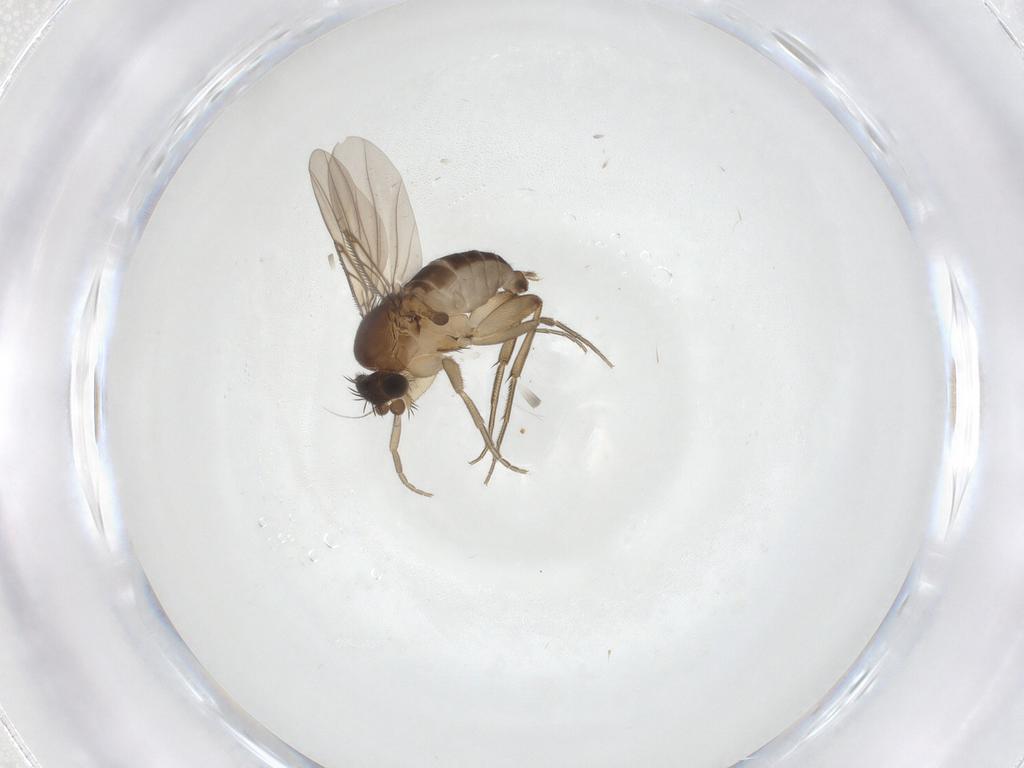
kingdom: Animalia
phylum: Arthropoda
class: Insecta
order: Diptera
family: Phoridae
